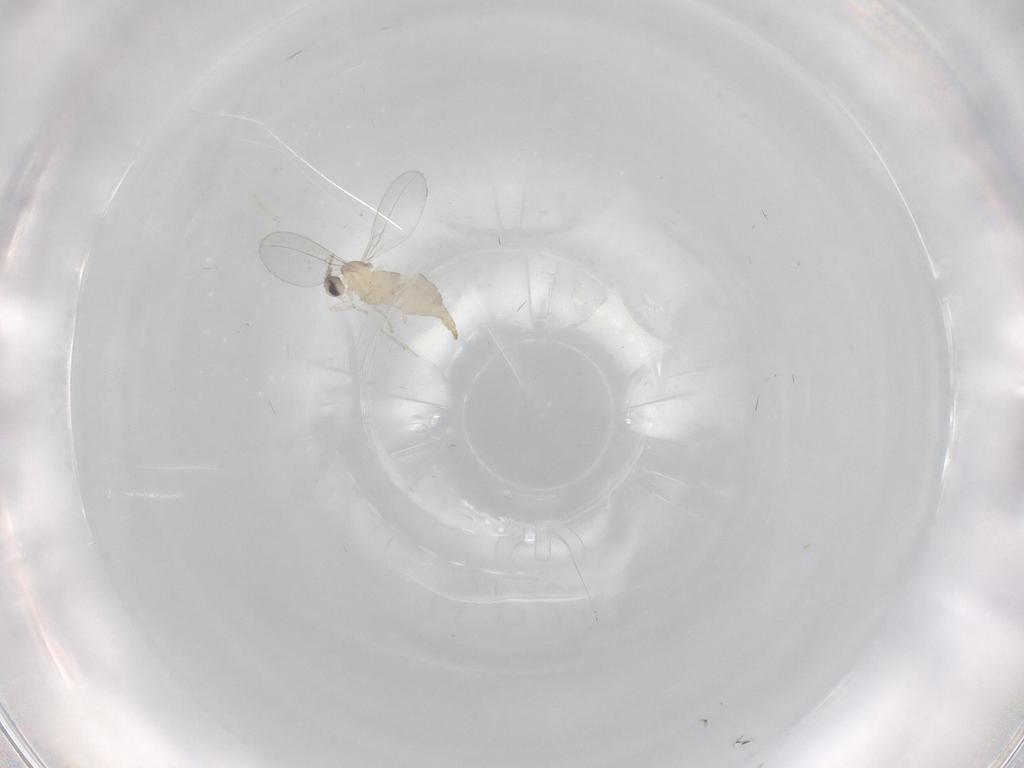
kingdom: Animalia
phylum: Arthropoda
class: Insecta
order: Diptera
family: Cecidomyiidae
